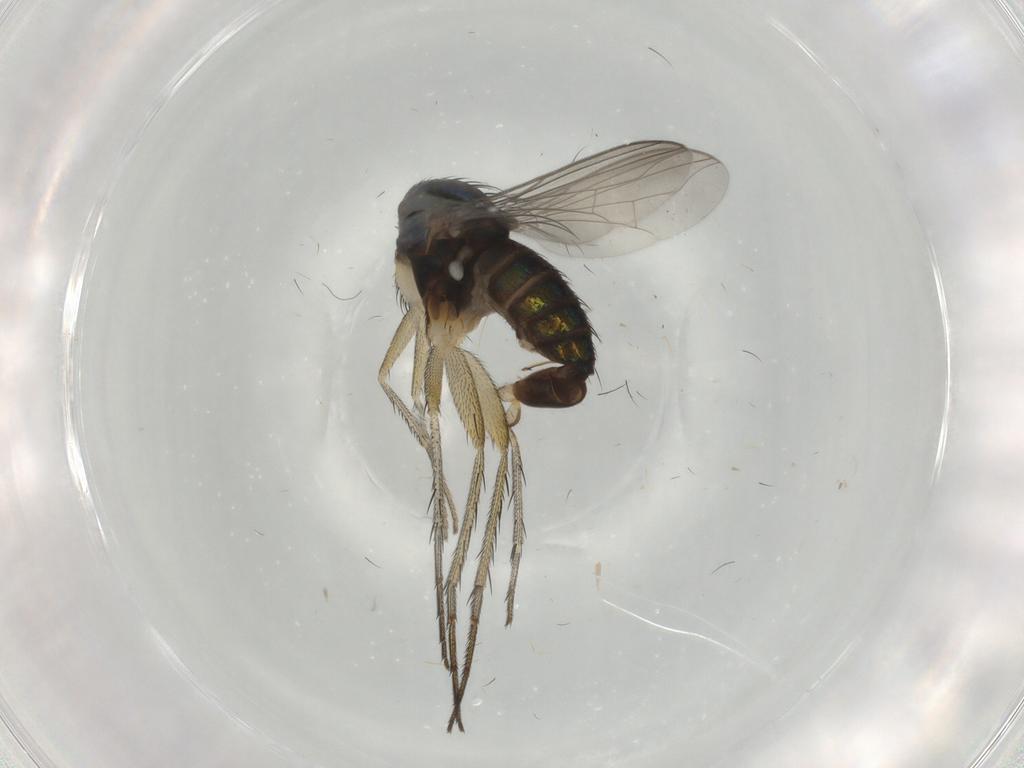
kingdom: Animalia
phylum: Arthropoda
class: Insecta
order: Diptera
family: Dolichopodidae
